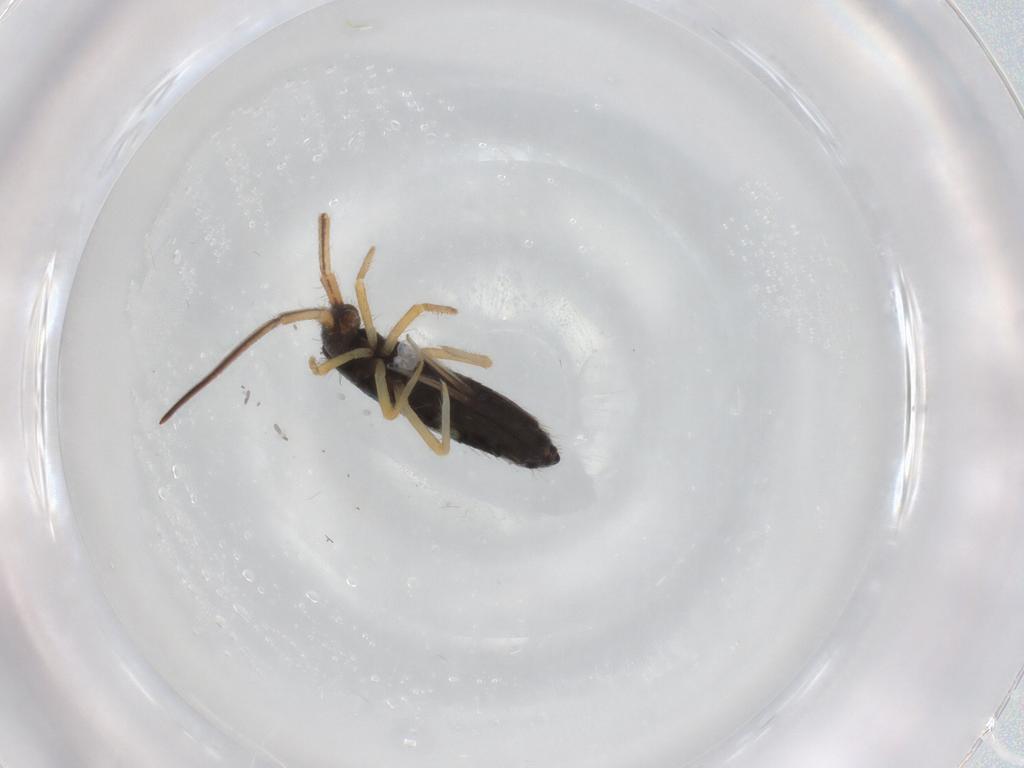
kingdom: Animalia
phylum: Arthropoda
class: Collembola
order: Entomobryomorpha
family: Entomobryidae
